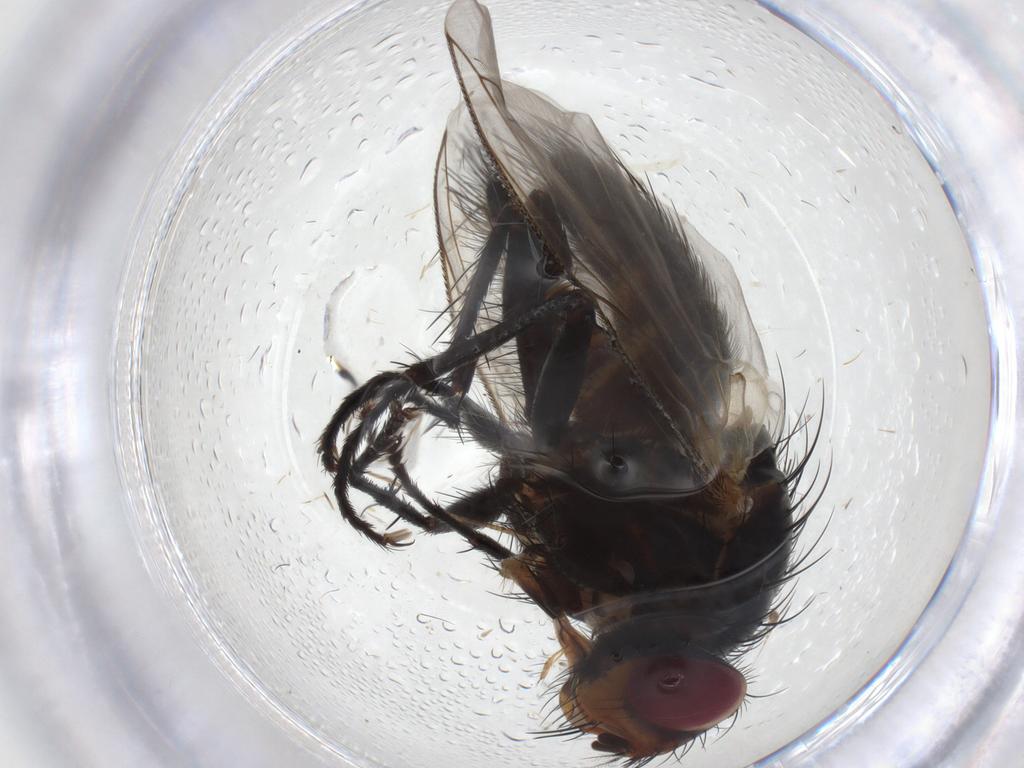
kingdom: Animalia
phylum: Arthropoda
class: Insecta
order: Diptera
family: Tachinidae
